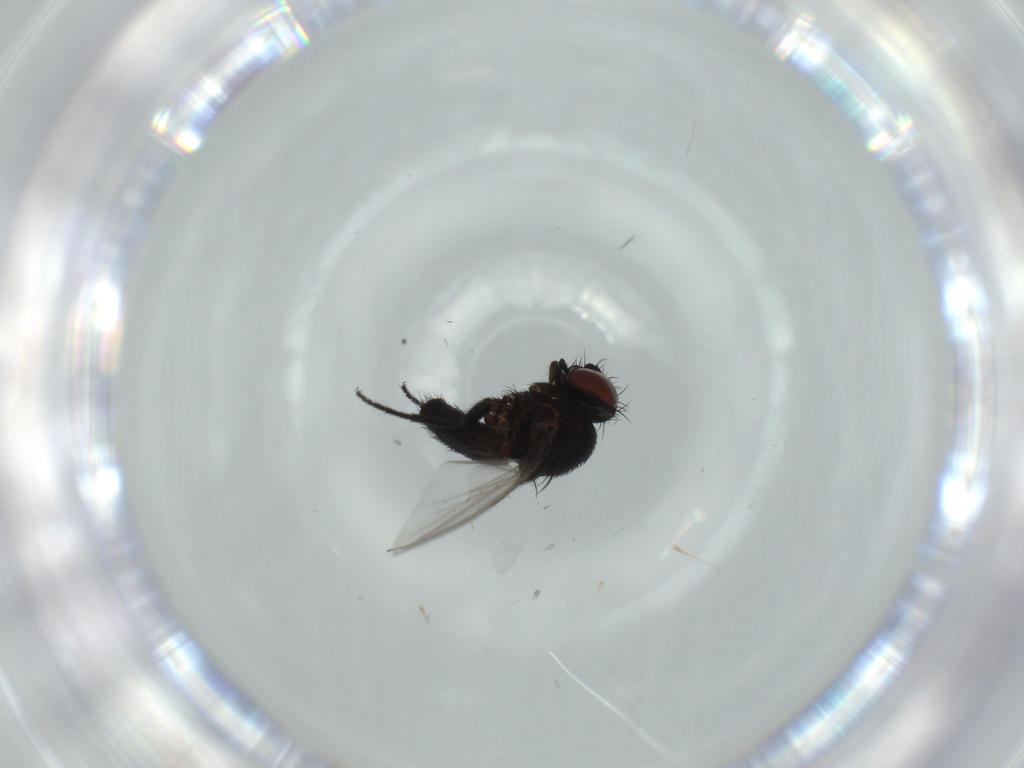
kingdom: Animalia
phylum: Arthropoda
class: Insecta
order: Diptera
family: Milichiidae
